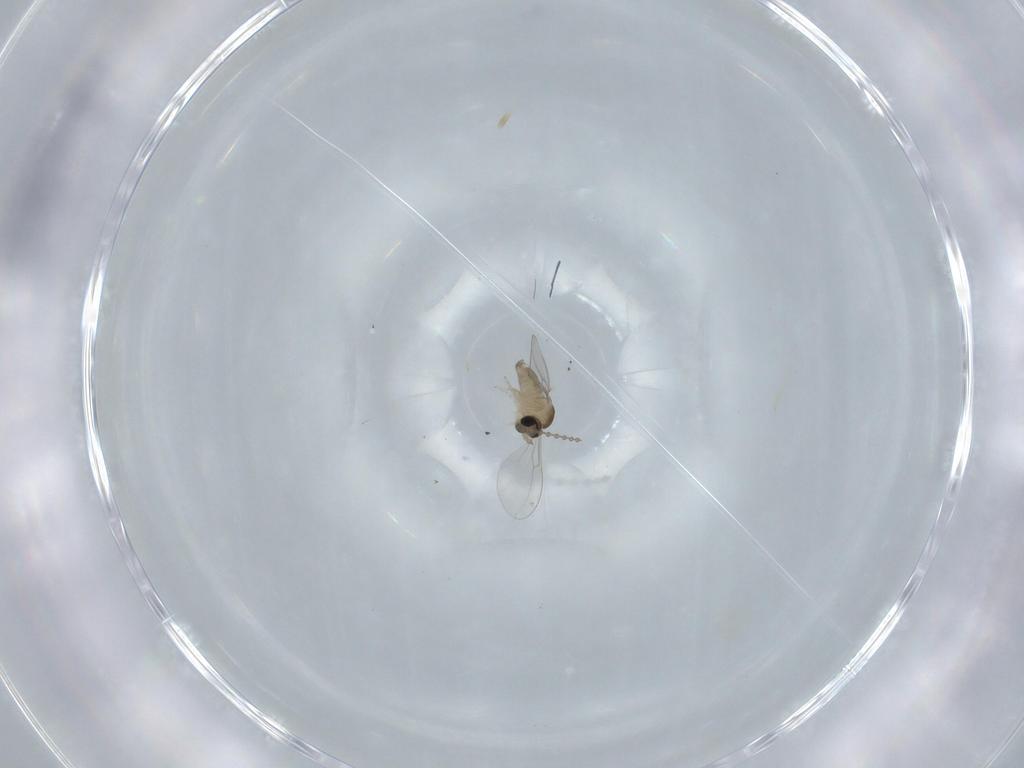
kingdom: Animalia
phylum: Arthropoda
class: Insecta
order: Diptera
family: Cecidomyiidae
